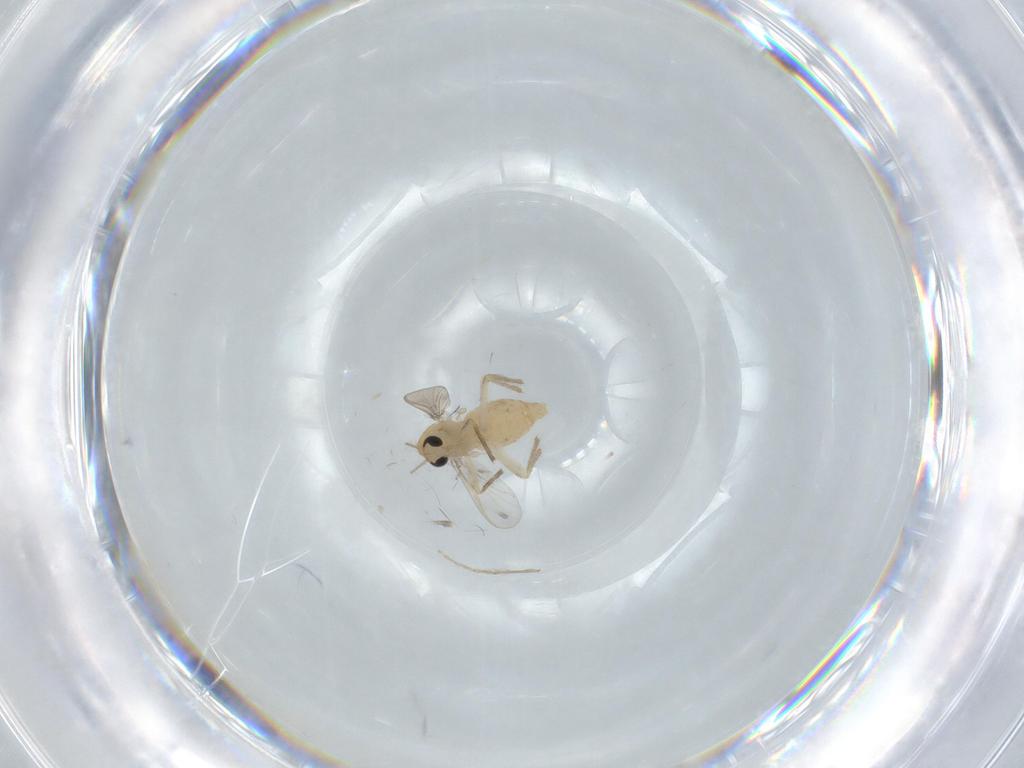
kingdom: Animalia
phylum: Arthropoda
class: Insecta
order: Diptera
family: Chironomidae
